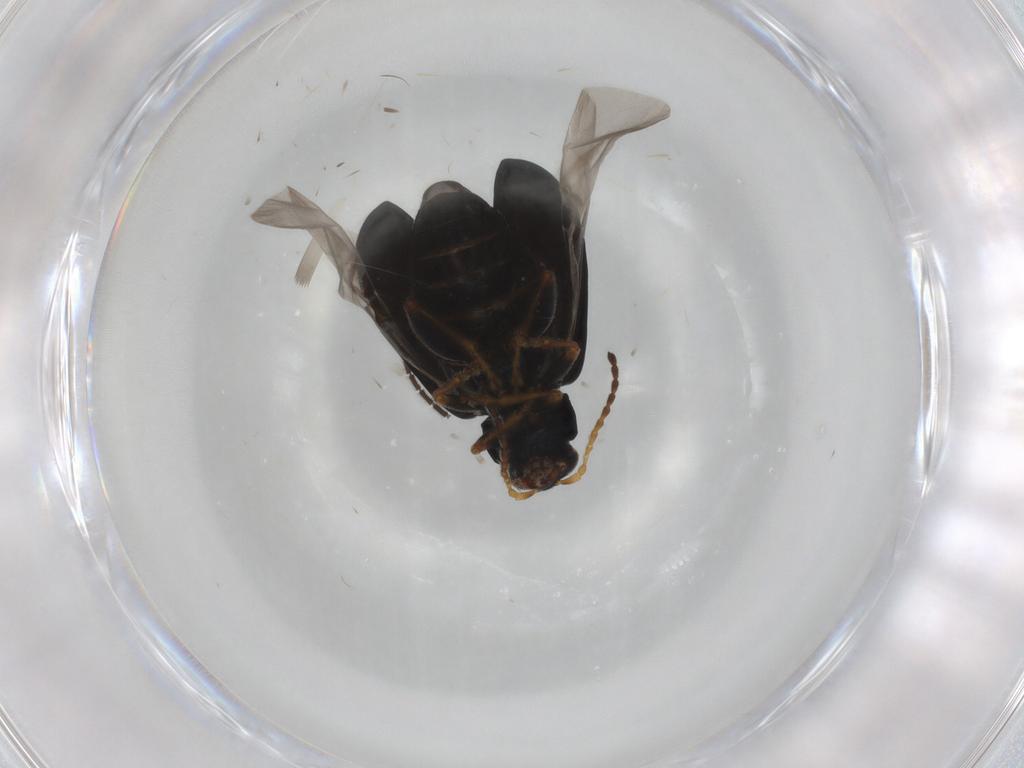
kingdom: Animalia
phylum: Arthropoda
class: Insecta
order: Coleoptera
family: Chrysomelidae
